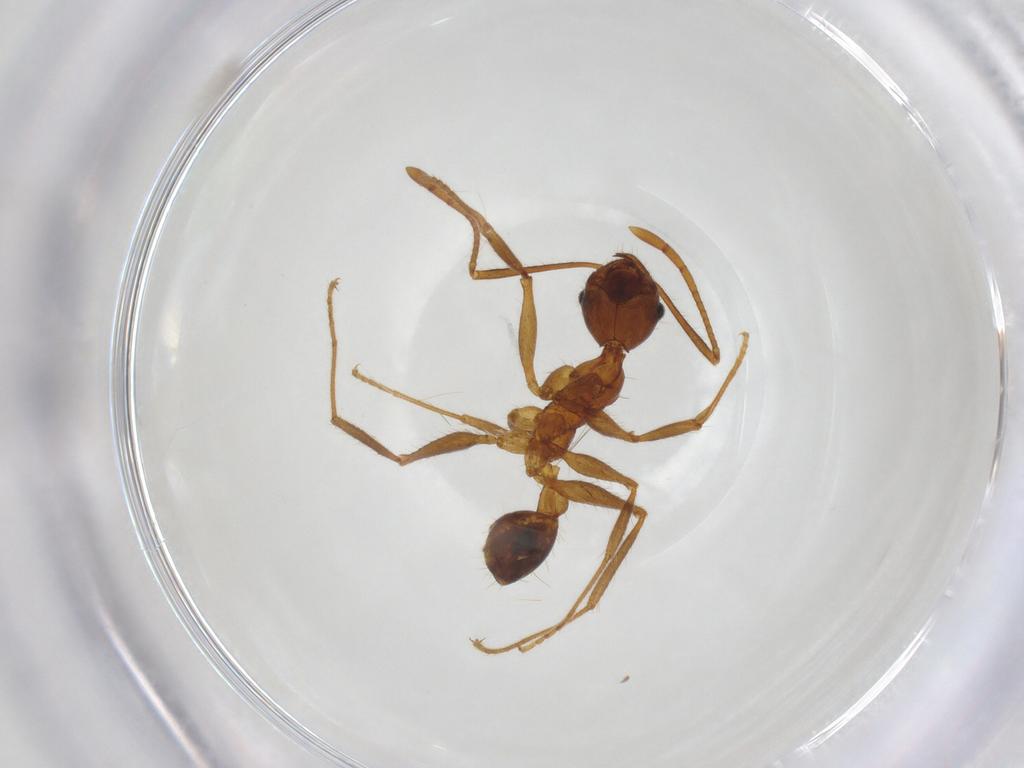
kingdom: Animalia
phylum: Arthropoda
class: Insecta
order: Hymenoptera
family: Formicidae
